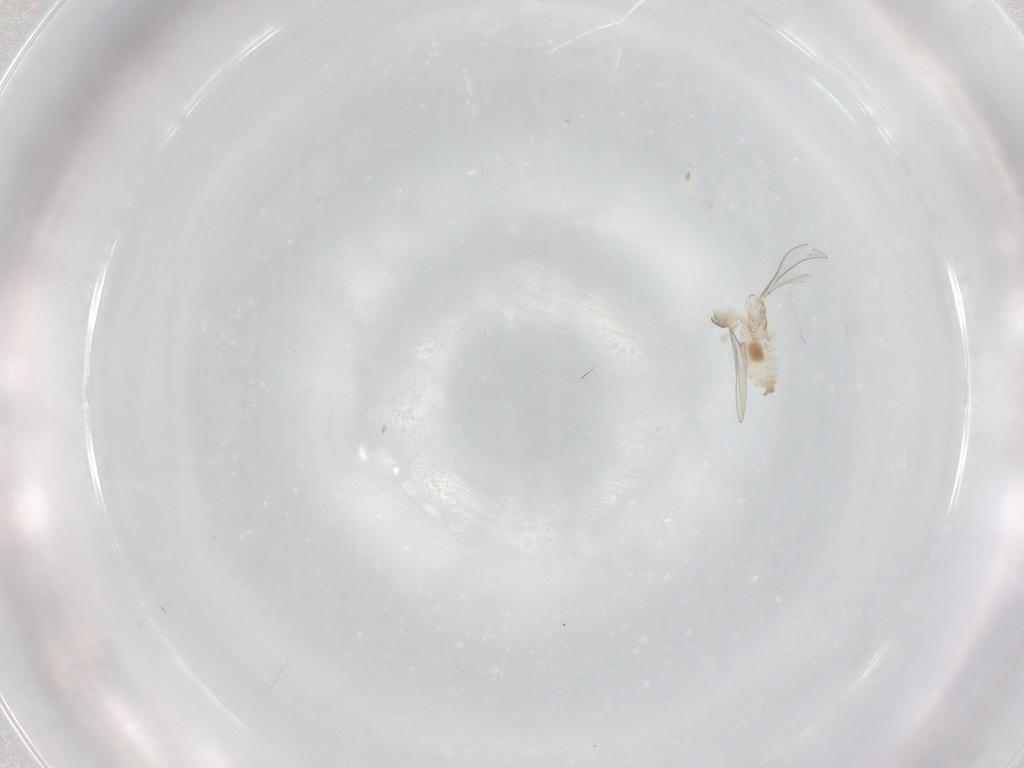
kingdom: Animalia
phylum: Arthropoda
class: Insecta
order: Diptera
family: Cecidomyiidae
